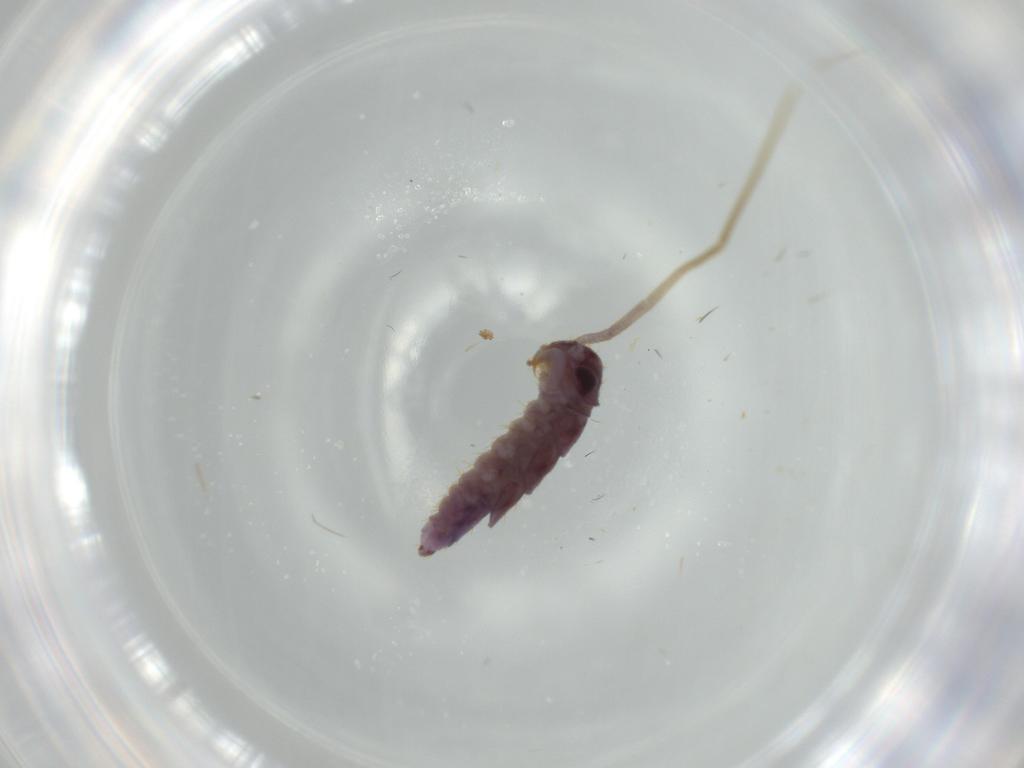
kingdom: Animalia
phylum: Arthropoda
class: Chilopoda
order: Scutigeromorpha
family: Scutigeridae
